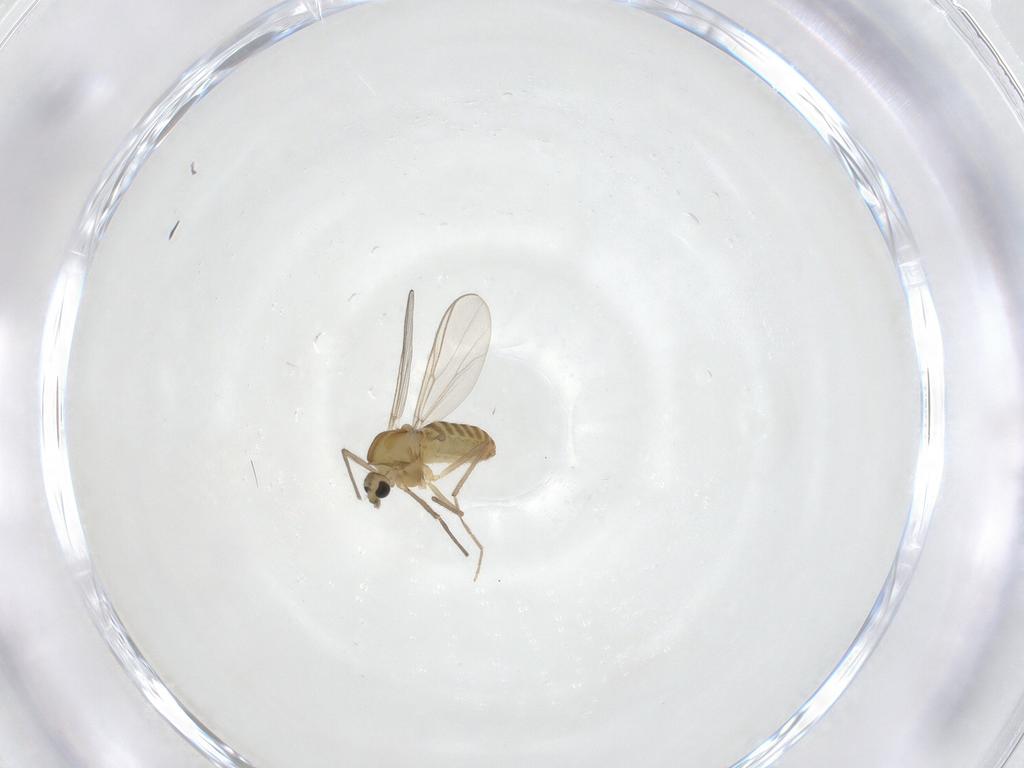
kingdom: Animalia
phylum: Arthropoda
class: Insecta
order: Diptera
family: Chironomidae
